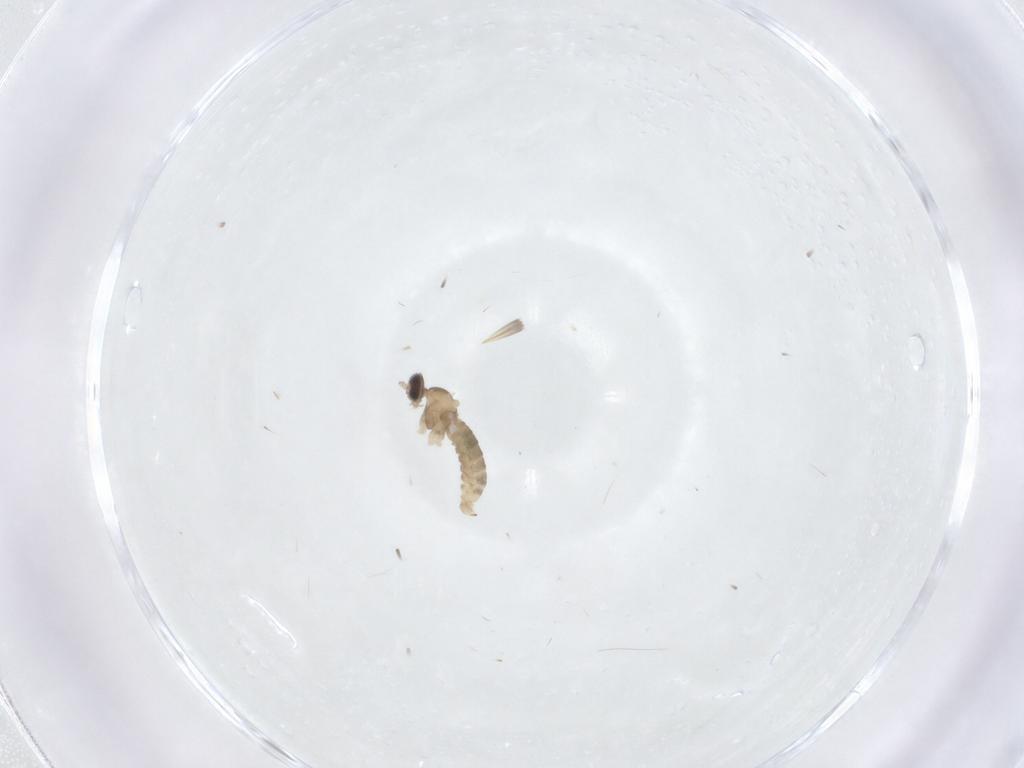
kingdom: Animalia
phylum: Arthropoda
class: Insecta
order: Diptera
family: Cecidomyiidae
